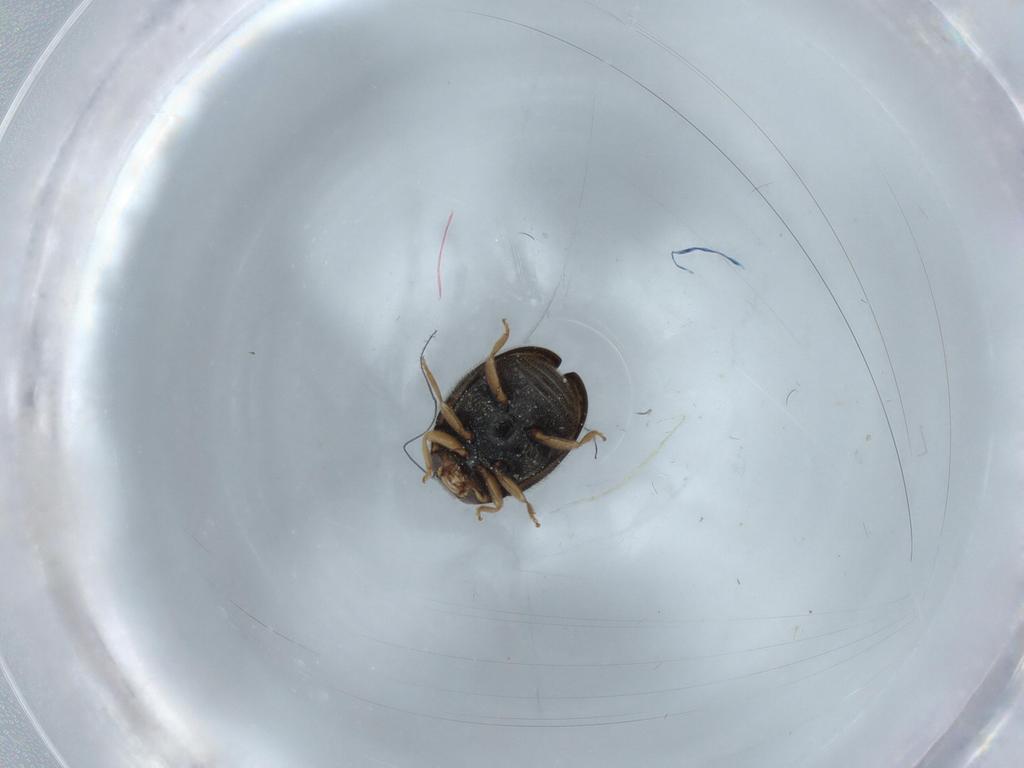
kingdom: Animalia
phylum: Arthropoda
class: Insecta
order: Coleoptera
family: Coccinellidae
